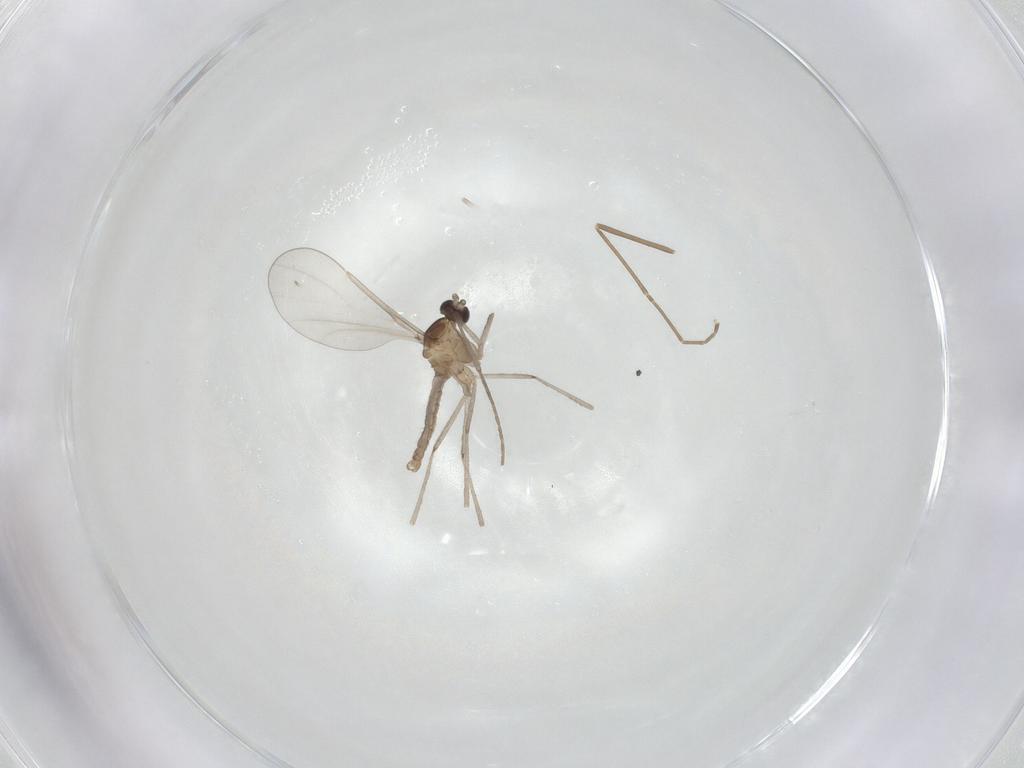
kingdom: Animalia
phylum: Arthropoda
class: Insecta
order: Diptera
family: Cecidomyiidae
